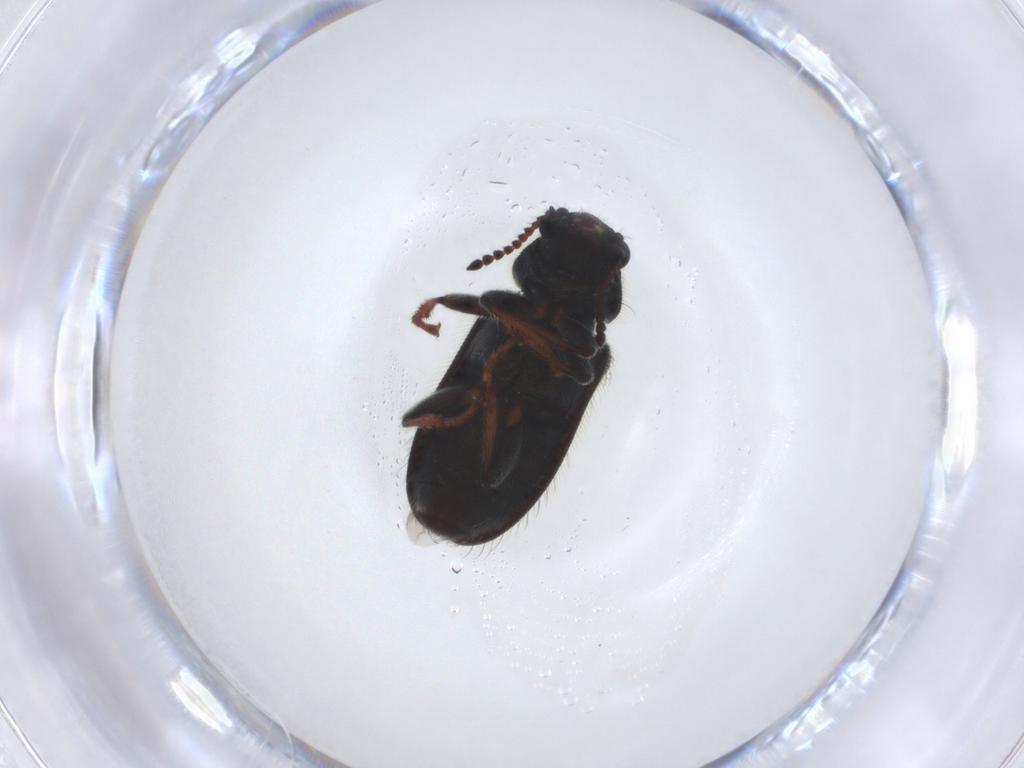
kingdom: Animalia
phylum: Arthropoda
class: Insecta
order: Coleoptera
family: Melyridae
